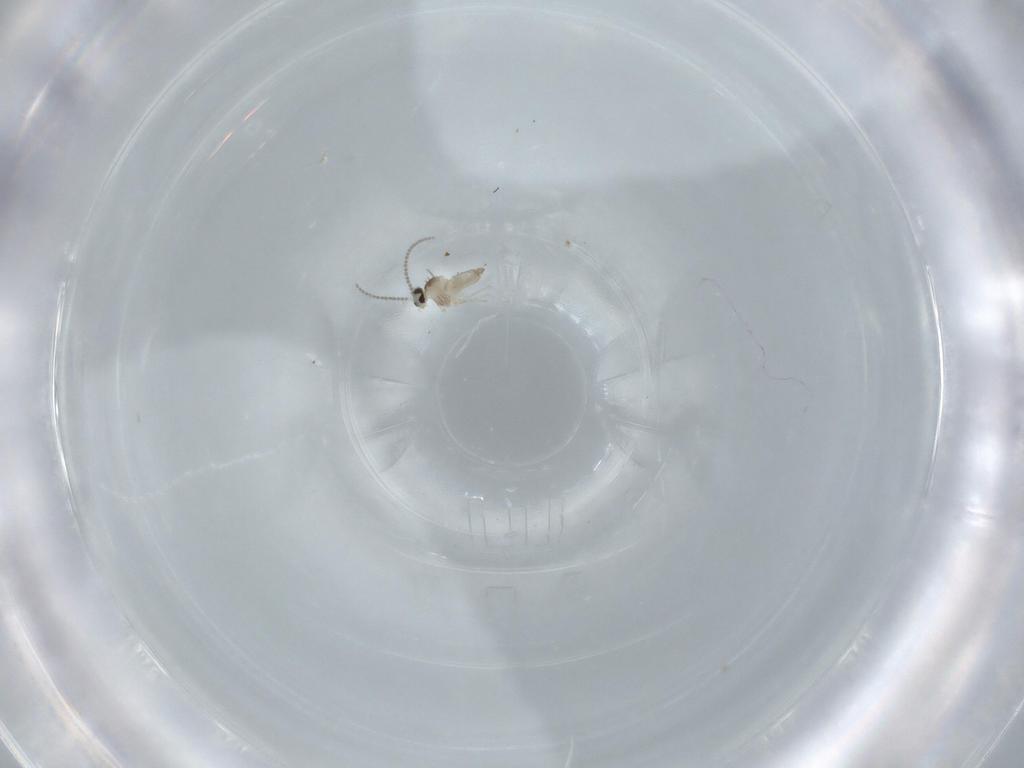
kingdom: Animalia
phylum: Arthropoda
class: Insecta
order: Diptera
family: Cecidomyiidae
